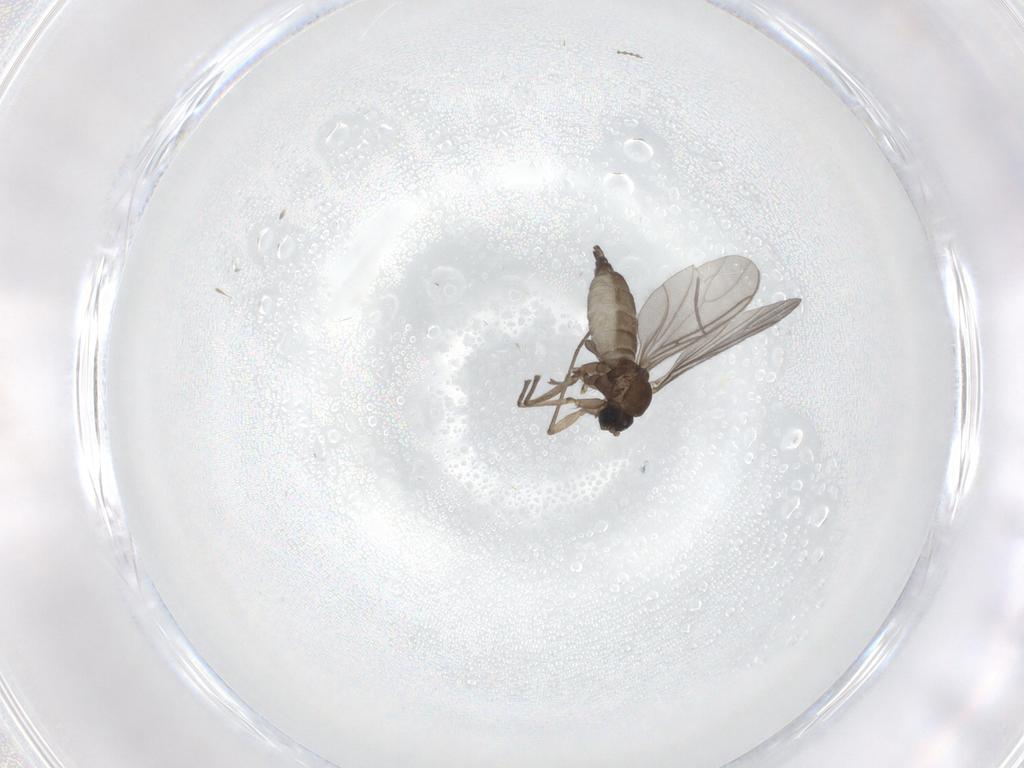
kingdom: Animalia
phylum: Arthropoda
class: Insecta
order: Diptera
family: Sciaridae
